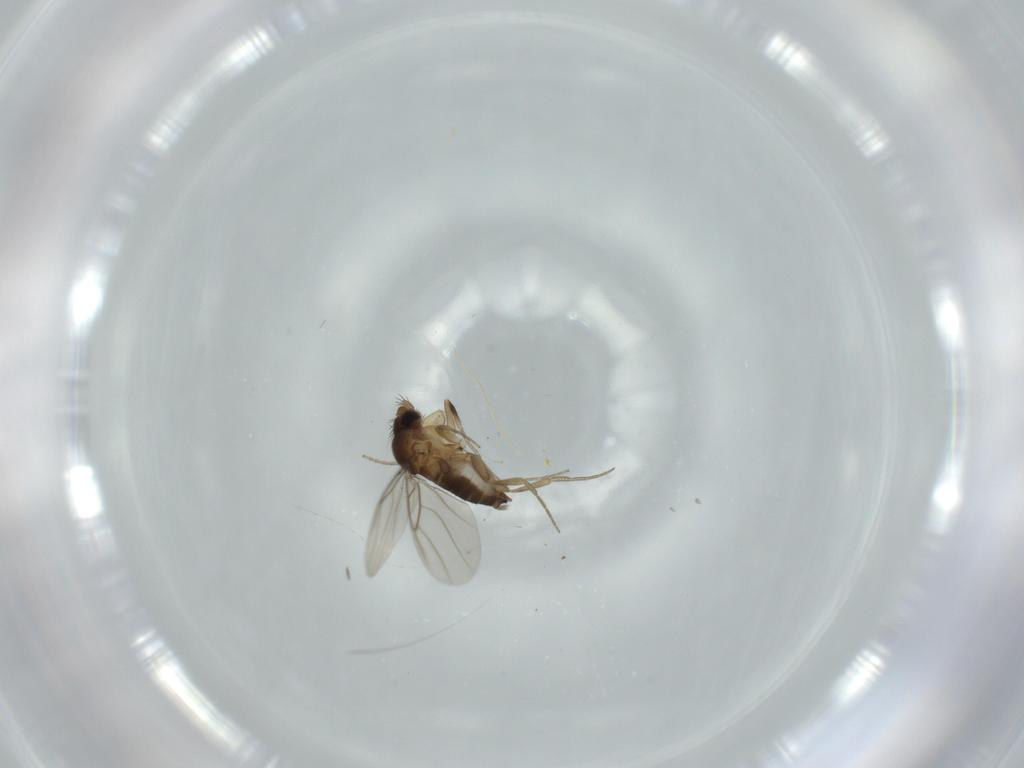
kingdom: Animalia
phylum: Arthropoda
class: Insecta
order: Diptera
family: Phoridae
